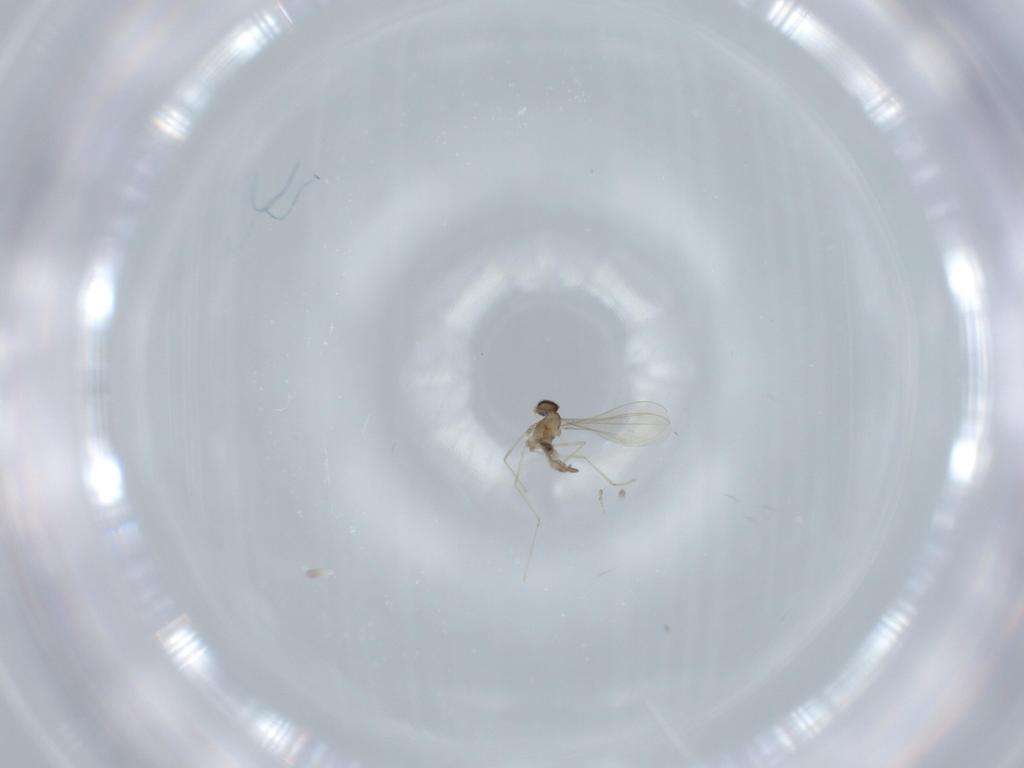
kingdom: Animalia
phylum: Arthropoda
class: Insecta
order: Diptera
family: Cecidomyiidae
